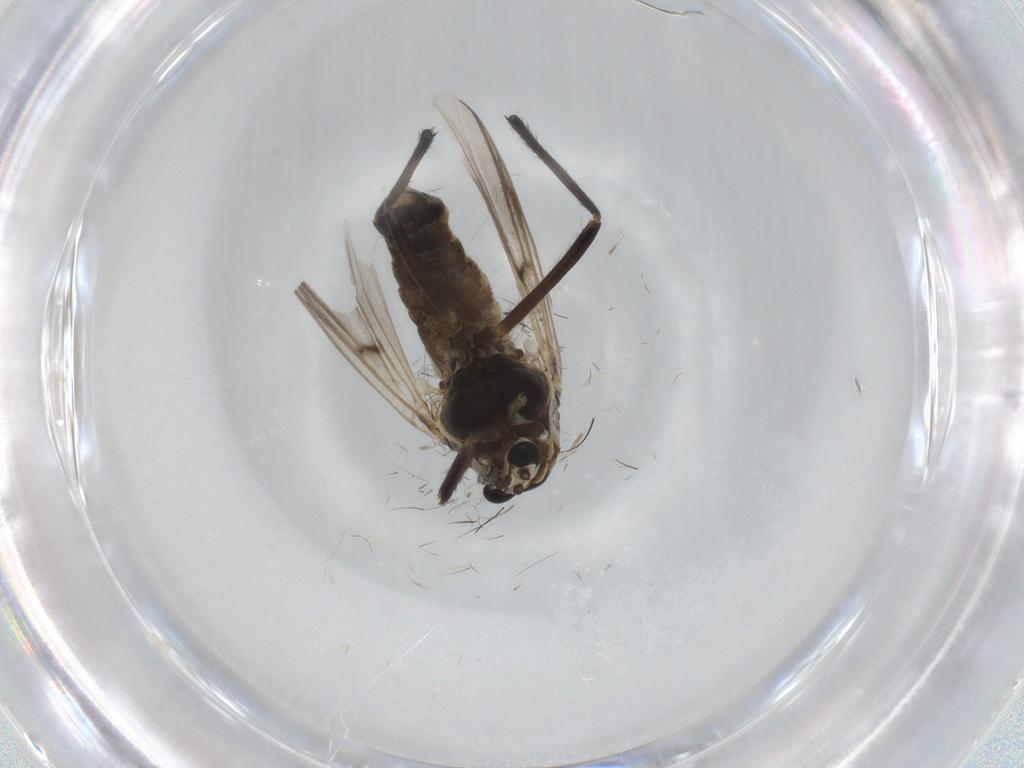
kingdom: Animalia
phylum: Arthropoda
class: Insecta
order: Diptera
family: Chironomidae
